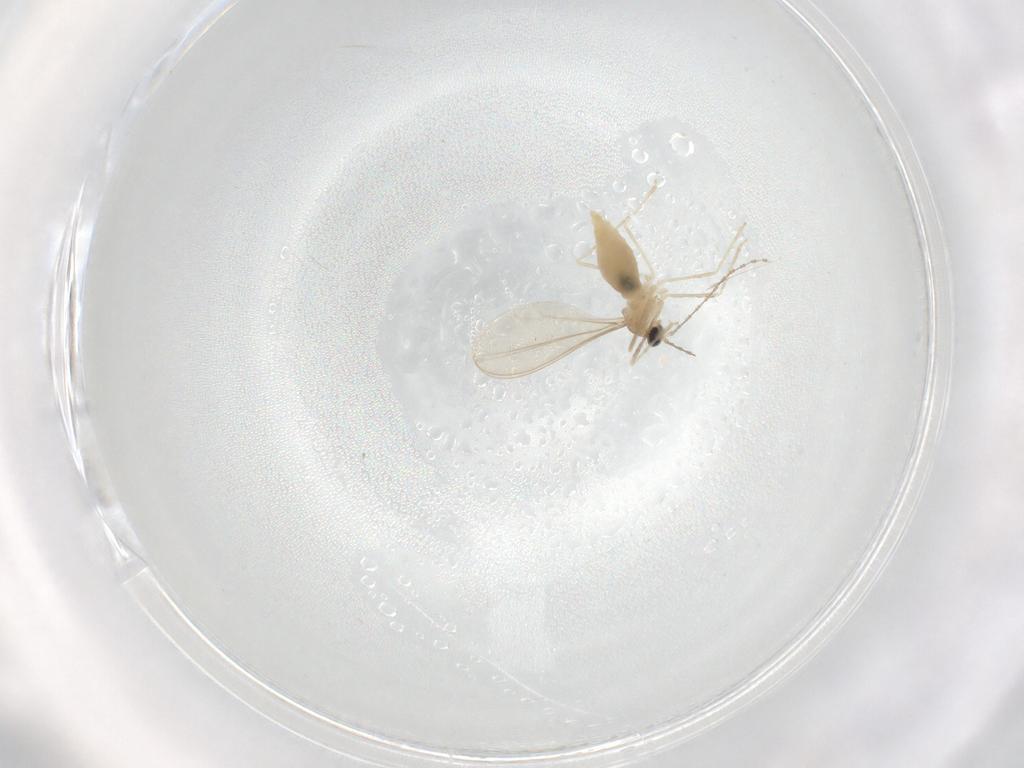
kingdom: Animalia
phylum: Arthropoda
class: Insecta
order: Diptera
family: Cecidomyiidae
